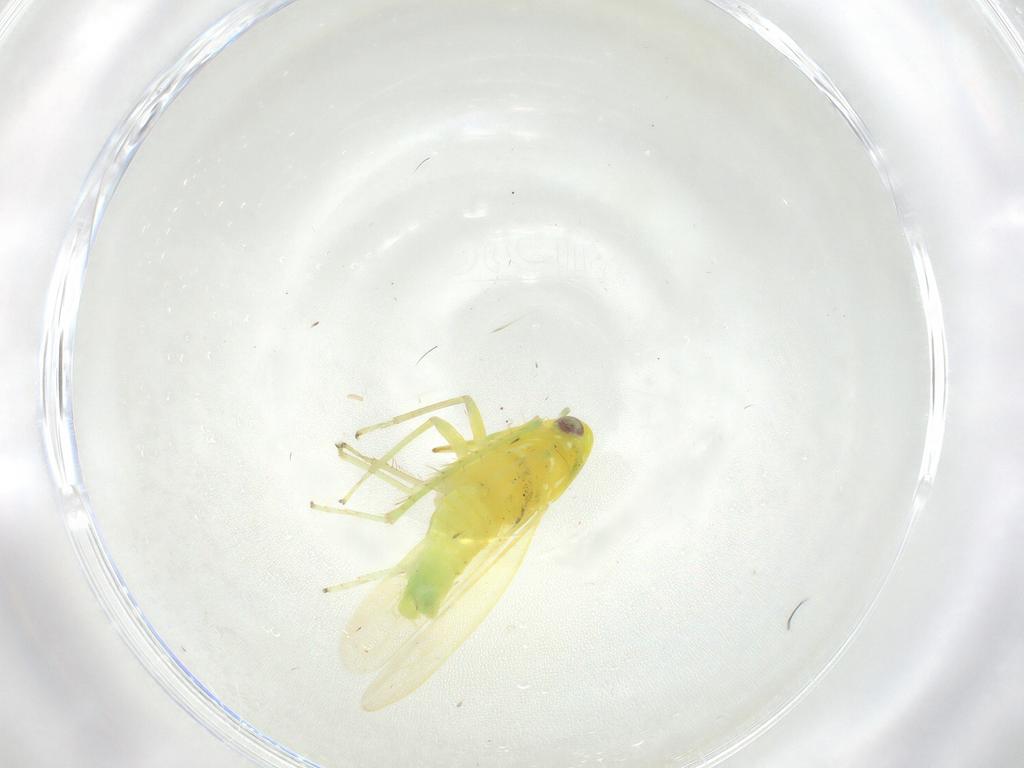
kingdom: Animalia
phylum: Arthropoda
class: Insecta
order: Hemiptera
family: Cicadellidae
